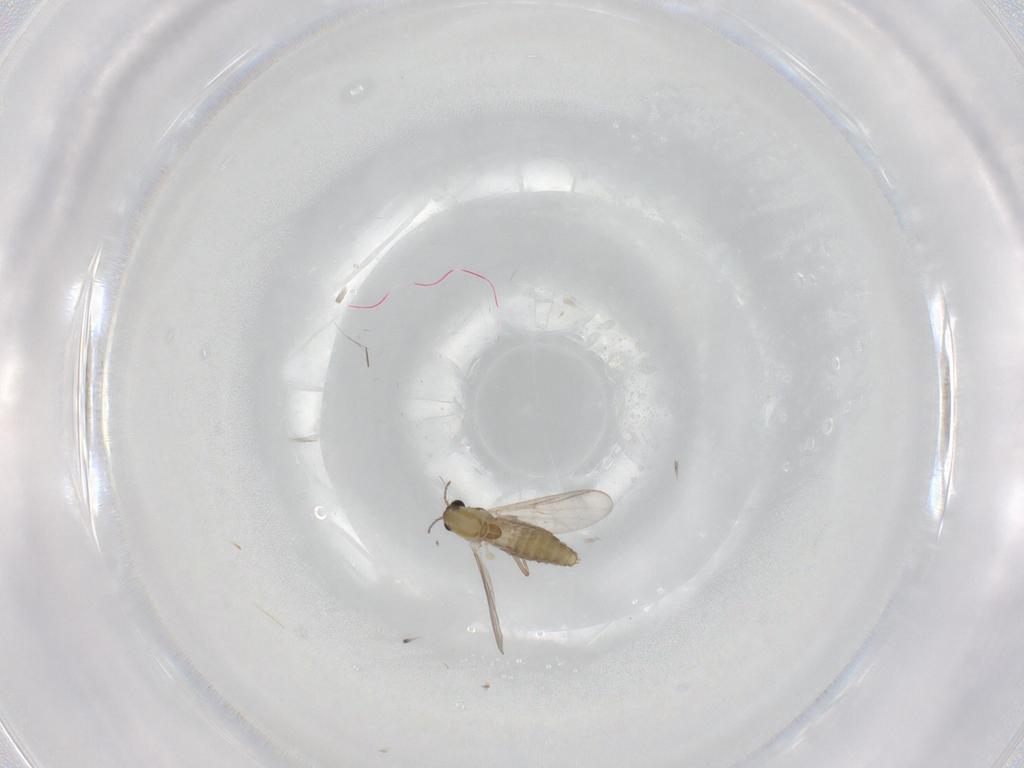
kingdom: Animalia
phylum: Arthropoda
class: Insecta
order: Diptera
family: Chironomidae
